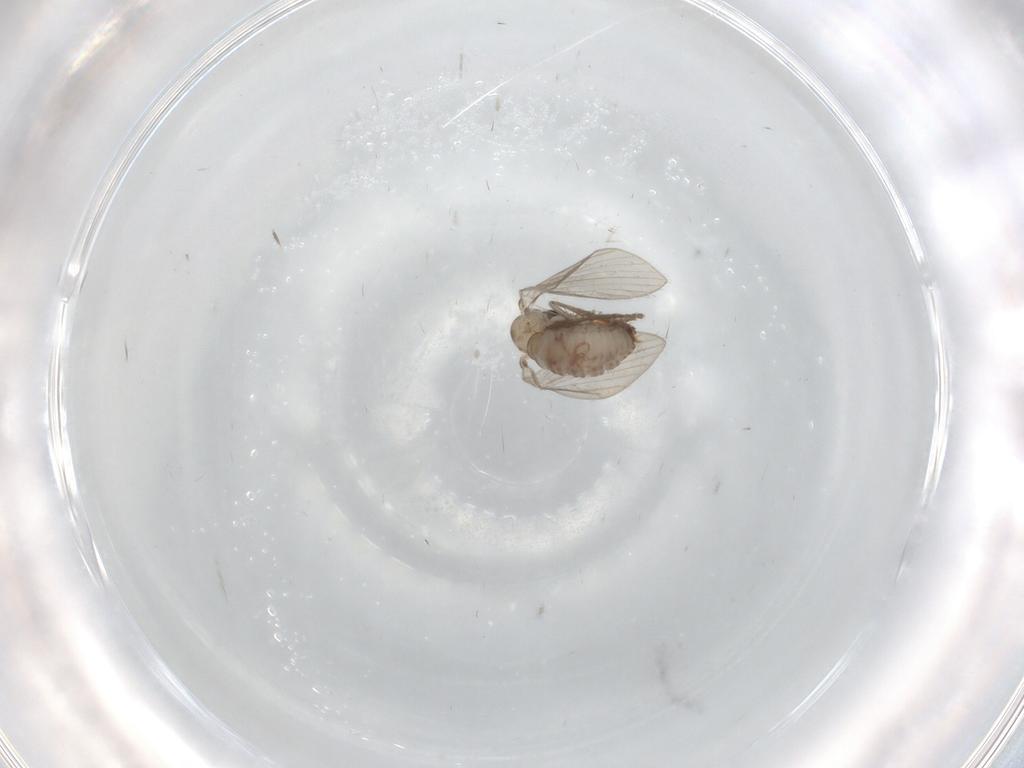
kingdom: Animalia
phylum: Arthropoda
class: Insecta
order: Diptera
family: Psychodidae
